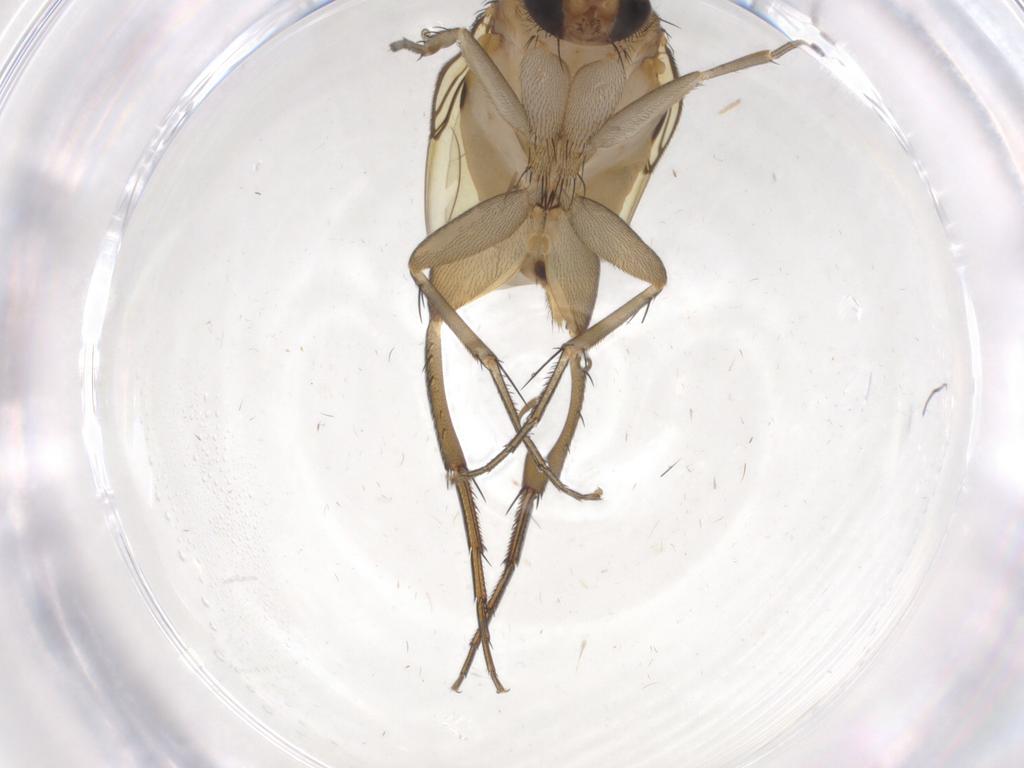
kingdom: Animalia
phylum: Arthropoda
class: Insecta
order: Diptera
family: Phoridae
